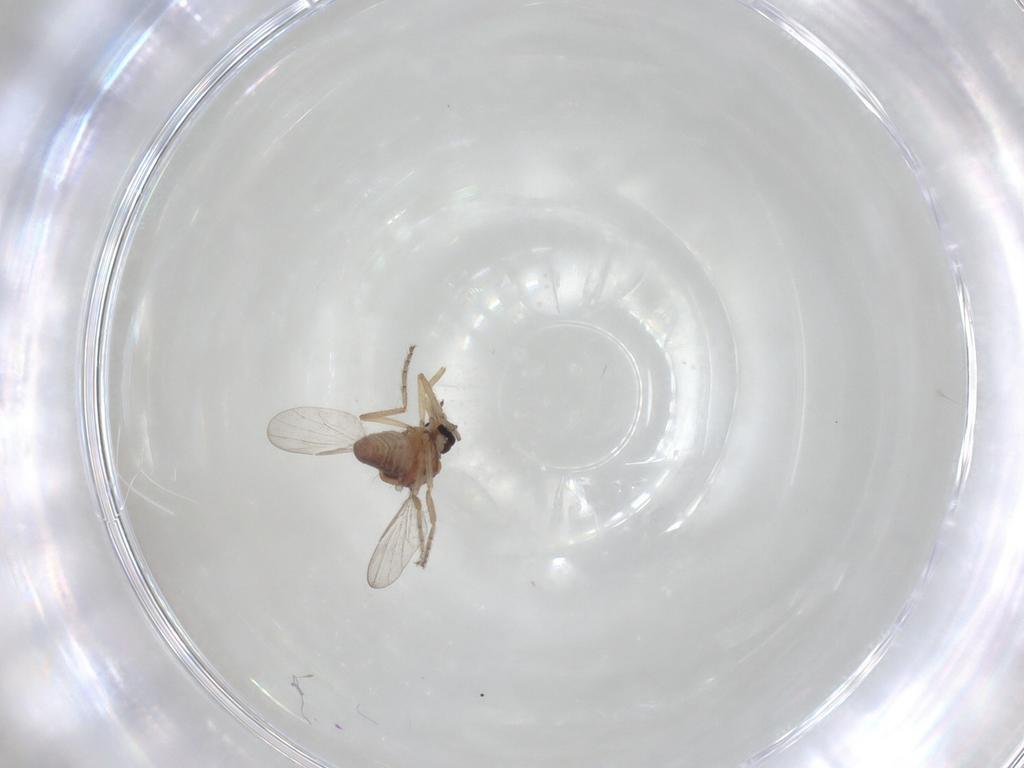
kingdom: Animalia
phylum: Arthropoda
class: Insecta
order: Diptera
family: Ceratopogonidae
